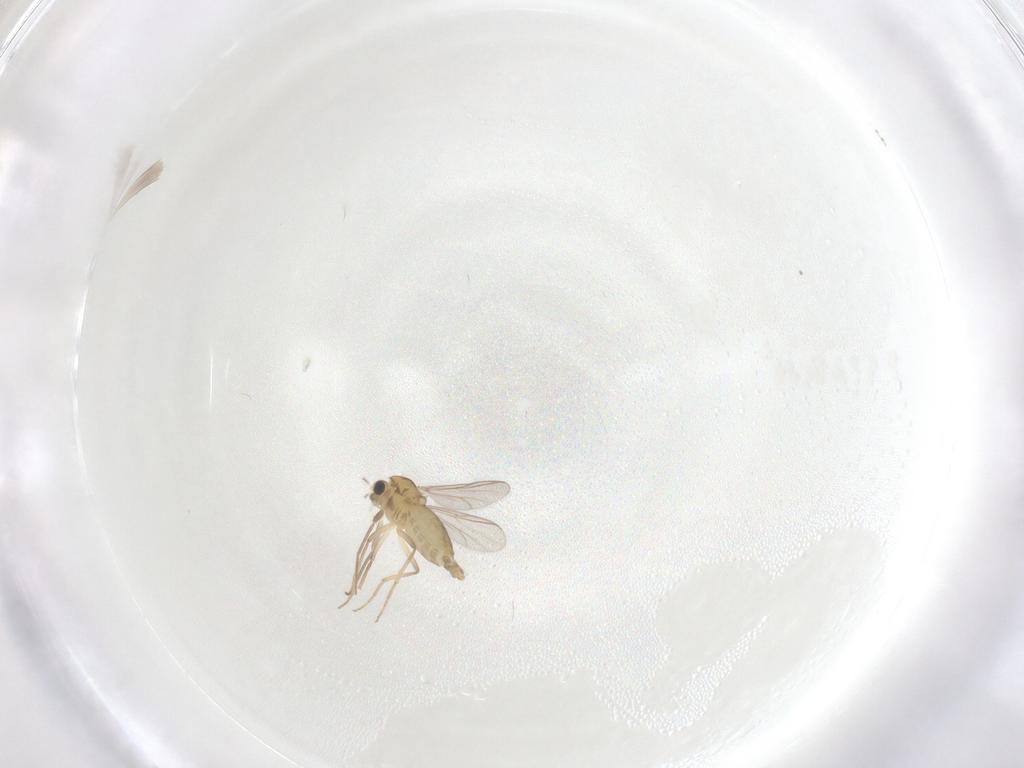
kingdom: Animalia
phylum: Arthropoda
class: Insecta
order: Diptera
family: Chironomidae
